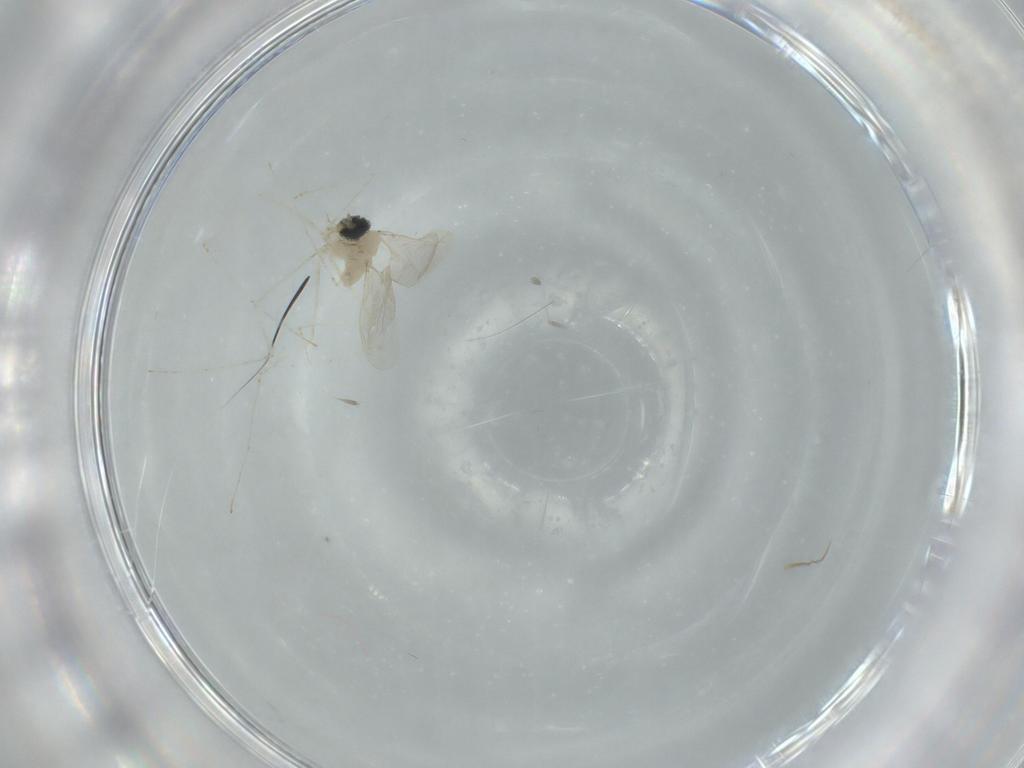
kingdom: Animalia
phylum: Arthropoda
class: Insecta
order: Diptera
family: Cecidomyiidae
